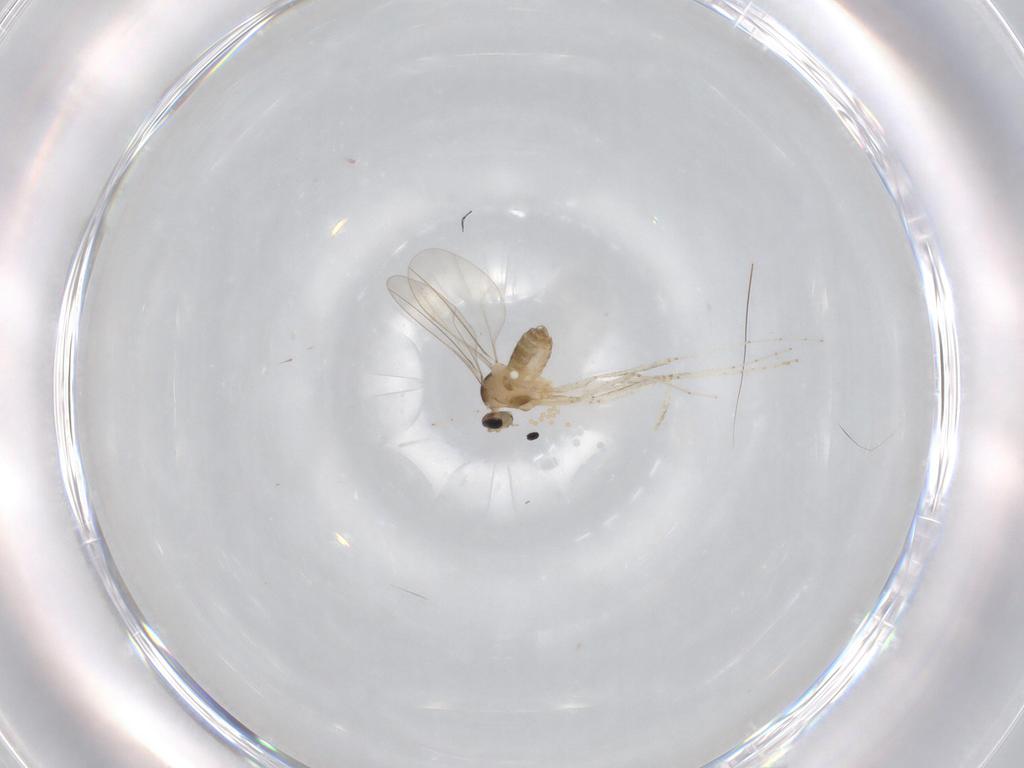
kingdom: Animalia
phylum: Arthropoda
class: Insecta
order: Diptera
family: Cecidomyiidae
